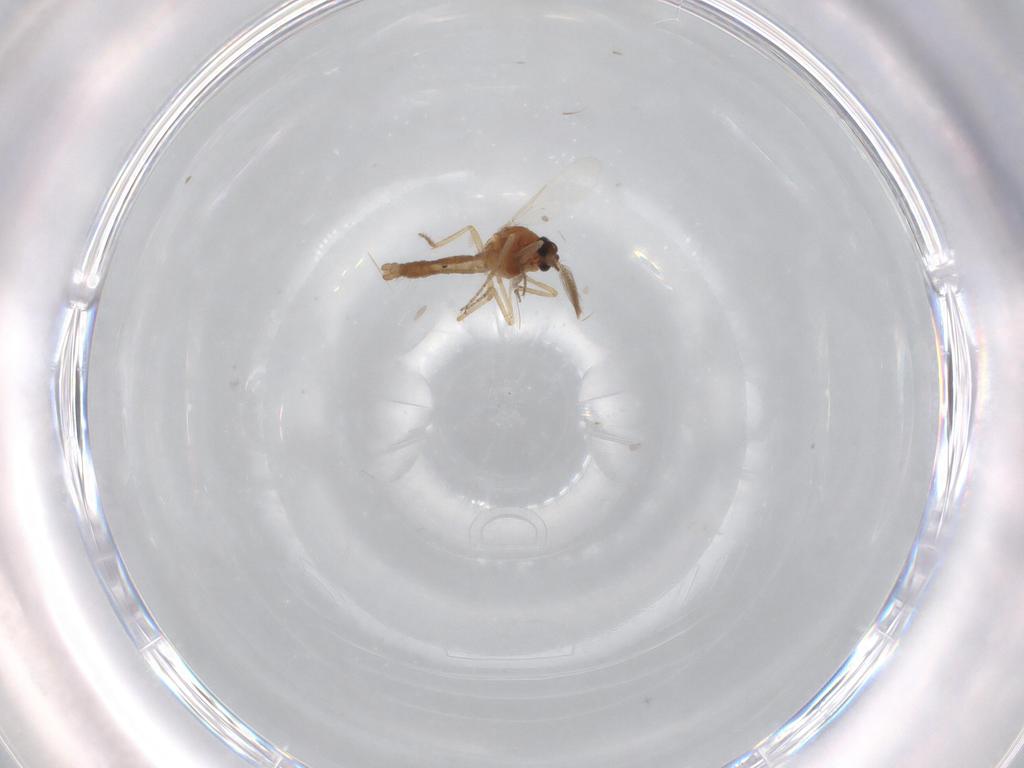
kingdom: Animalia
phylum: Arthropoda
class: Insecta
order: Diptera
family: Ceratopogonidae
